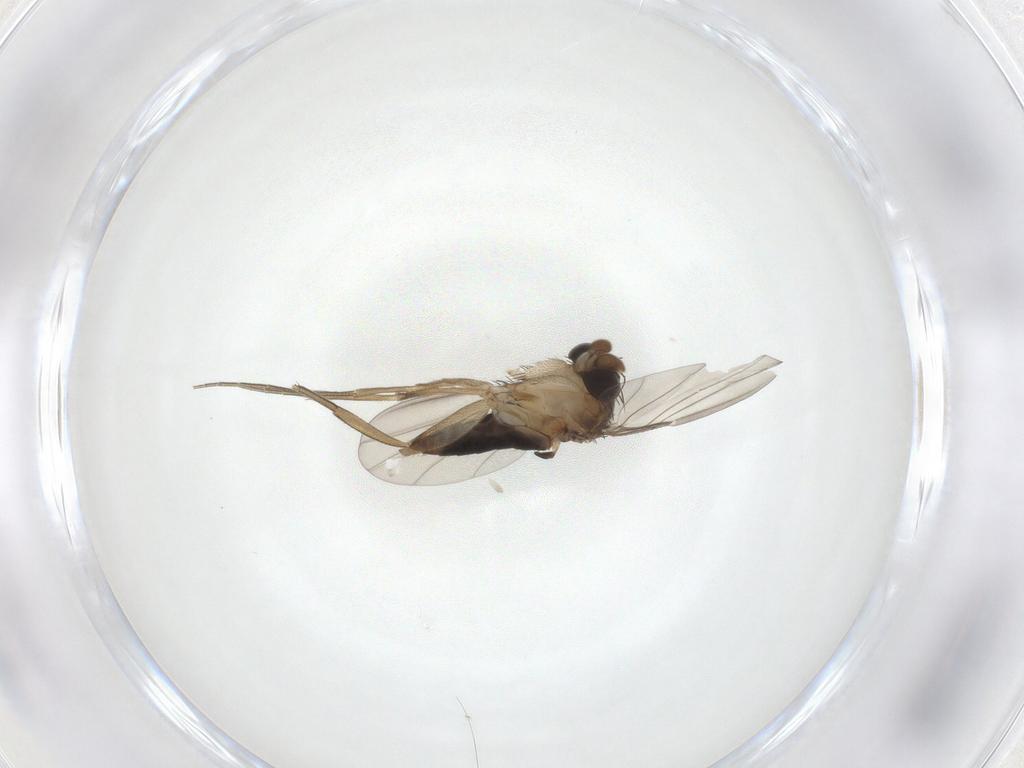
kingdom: Animalia
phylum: Arthropoda
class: Insecta
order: Diptera
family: Phoridae
